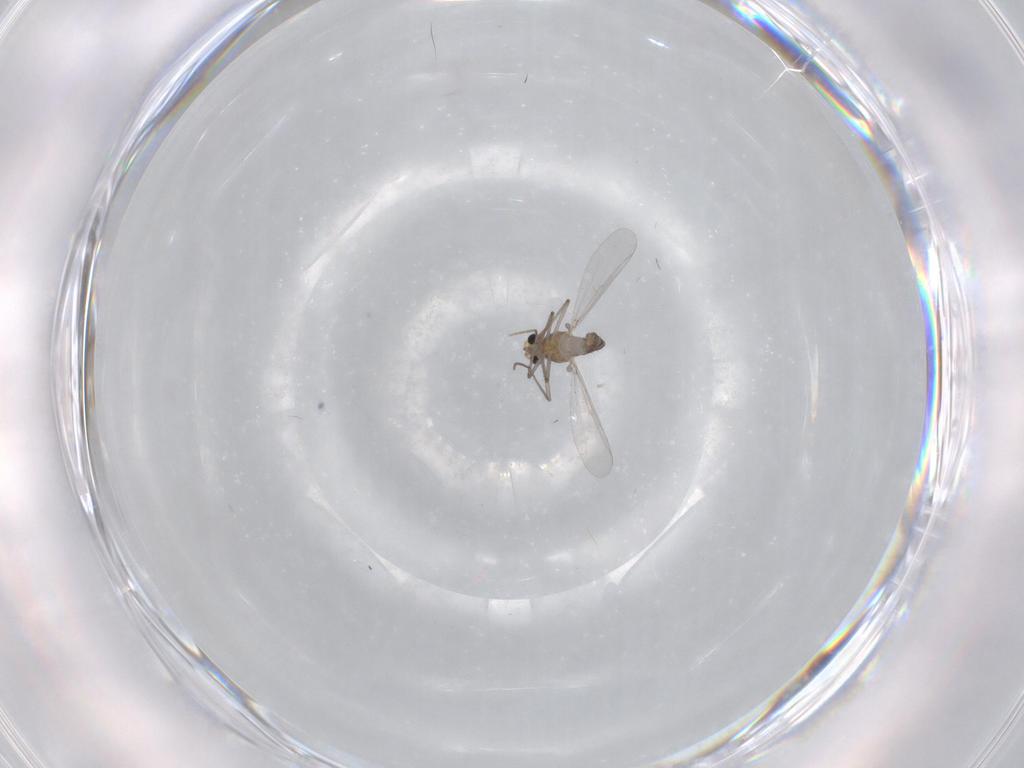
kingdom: Animalia
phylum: Arthropoda
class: Insecta
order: Diptera
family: Chironomidae
